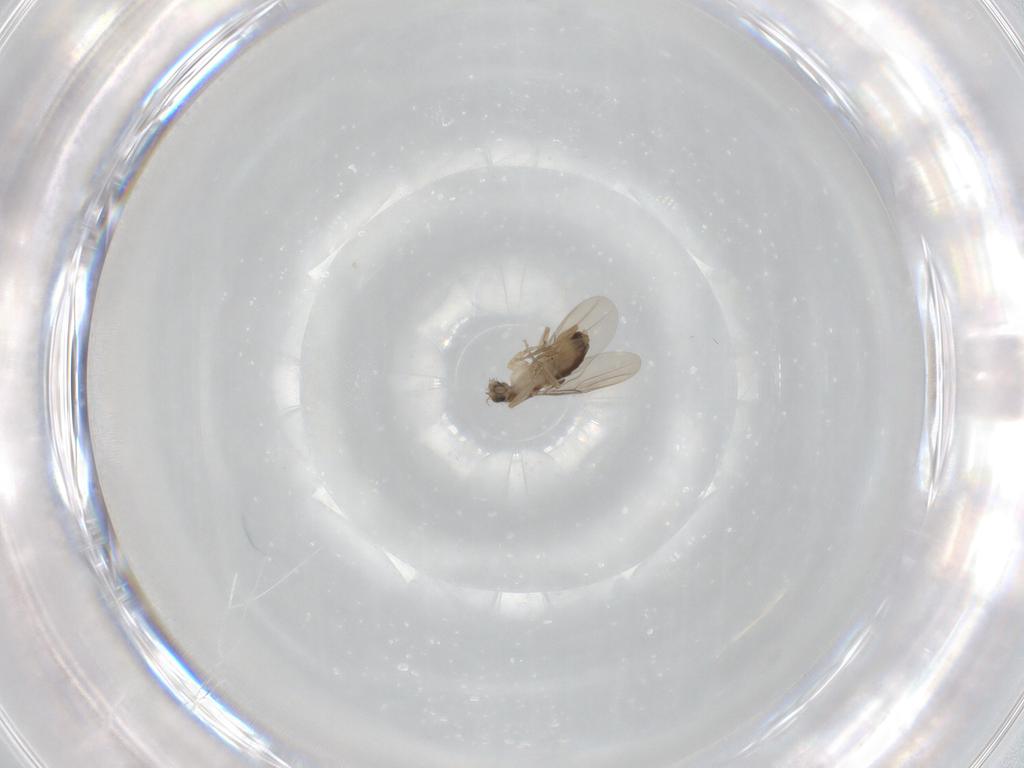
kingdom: Animalia
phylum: Arthropoda
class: Insecta
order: Diptera
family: Phoridae
